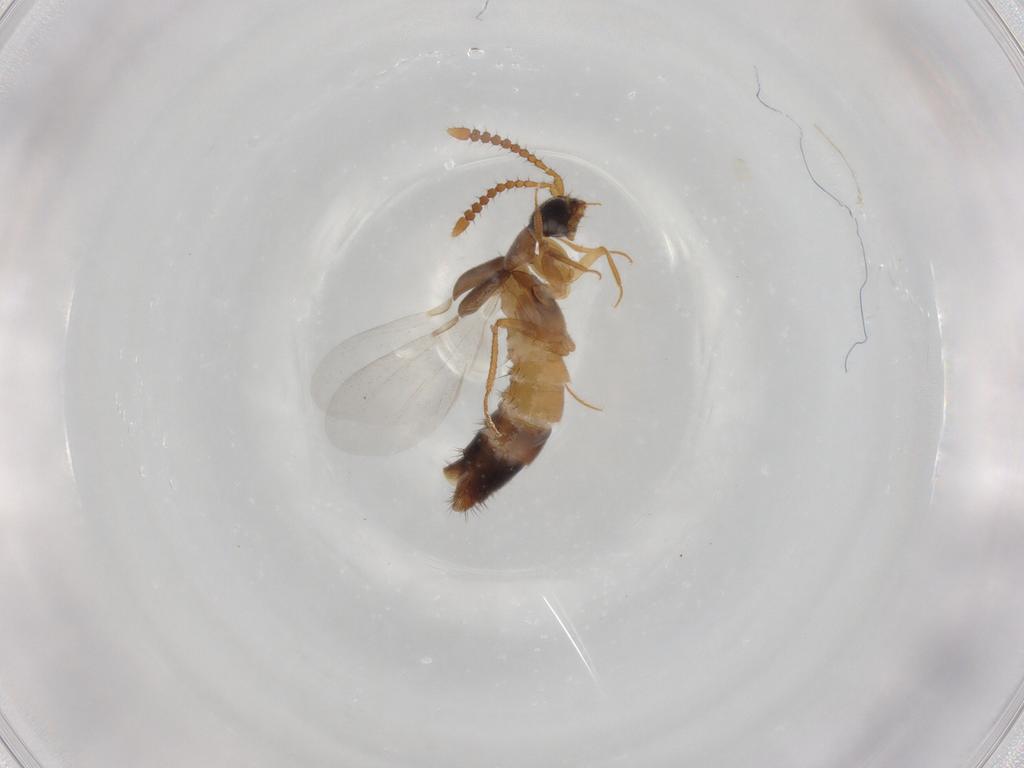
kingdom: Animalia
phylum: Arthropoda
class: Insecta
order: Coleoptera
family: Staphylinidae
